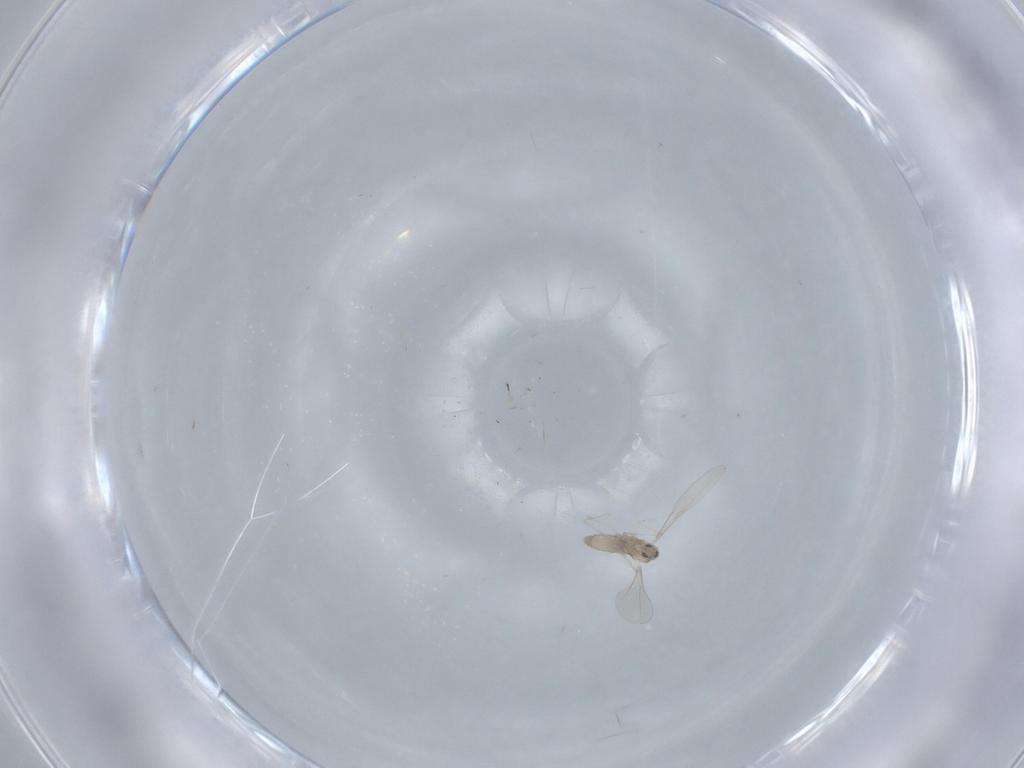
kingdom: Animalia
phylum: Arthropoda
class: Insecta
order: Diptera
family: Cecidomyiidae
